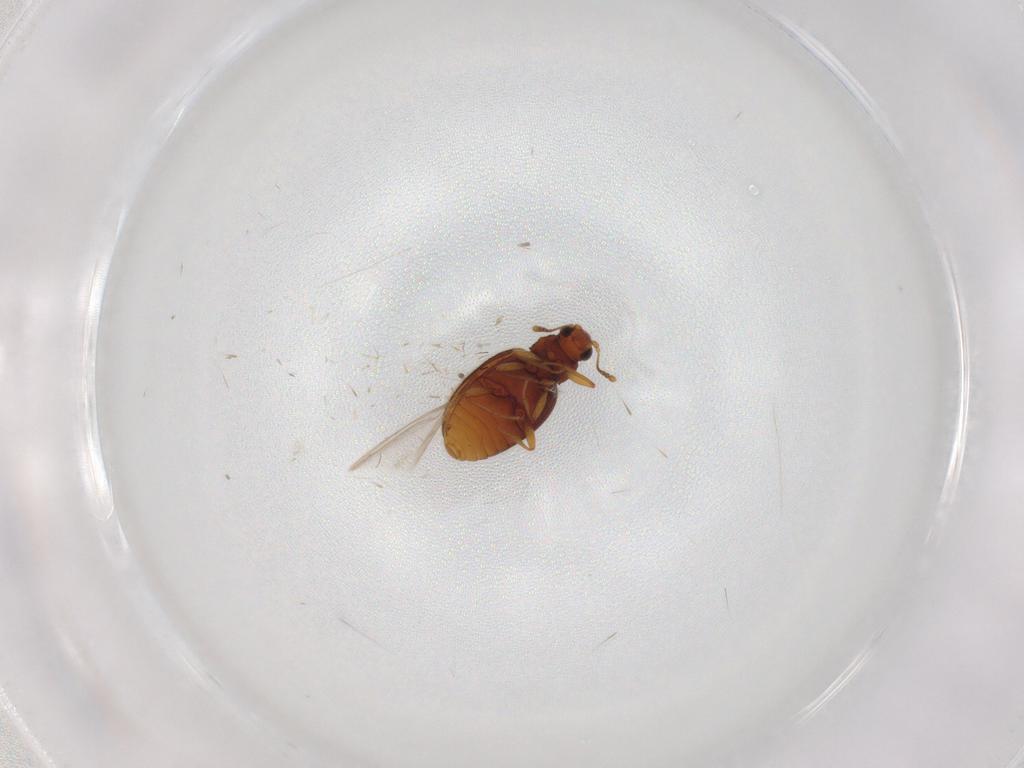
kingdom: Animalia
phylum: Arthropoda
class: Insecta
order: Coleoptera
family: Latridiidae
